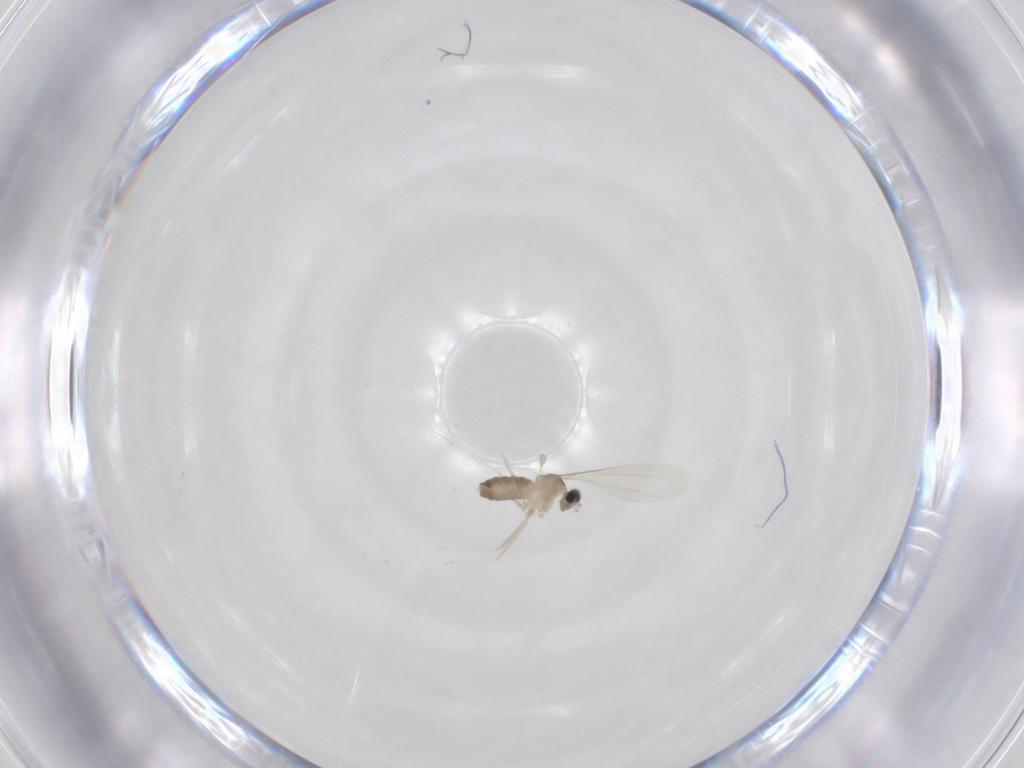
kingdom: Animalia
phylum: Arthropoda
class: Insecta
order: Diptera
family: Cecidomyiidae
